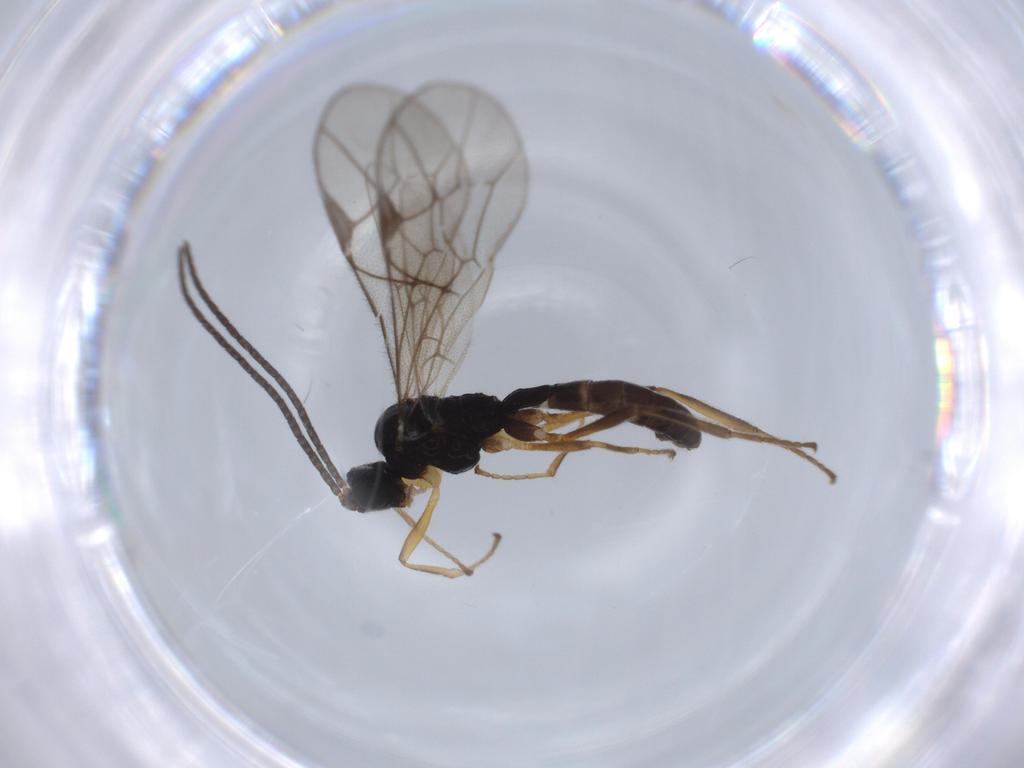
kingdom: Animalia
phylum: Arthropoda
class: Insecta
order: Hymenoptera
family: Ichneumonidae
